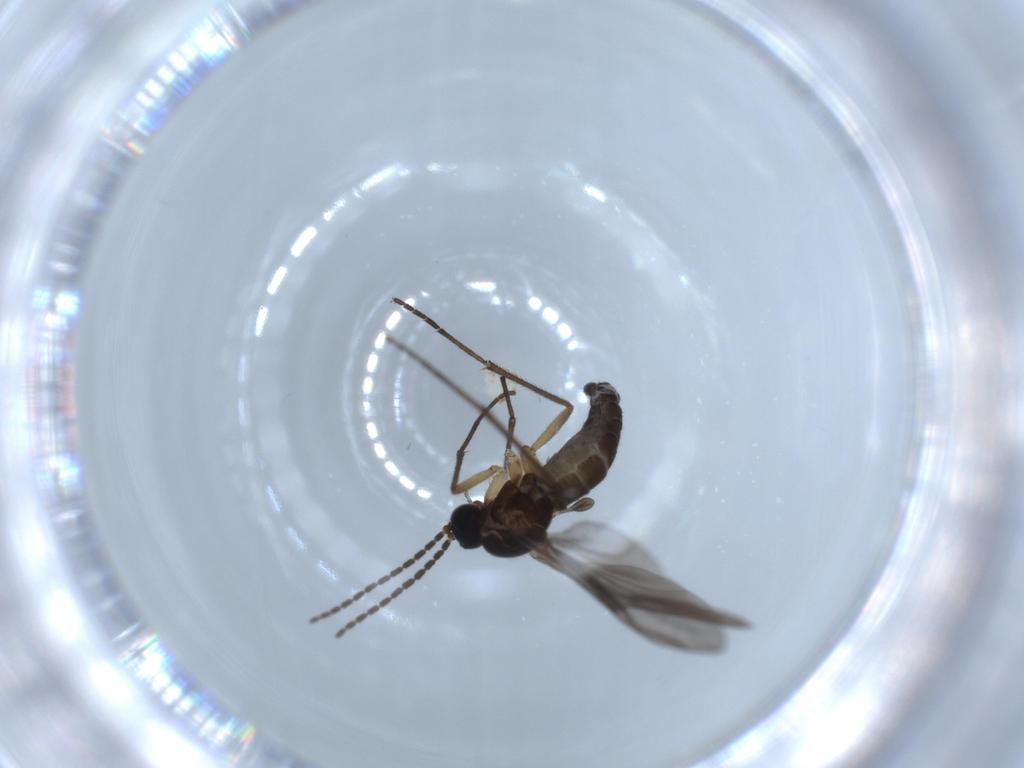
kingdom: Animalia
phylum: Arthropoda
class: Insecta
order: Diptera
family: Sciaridae
